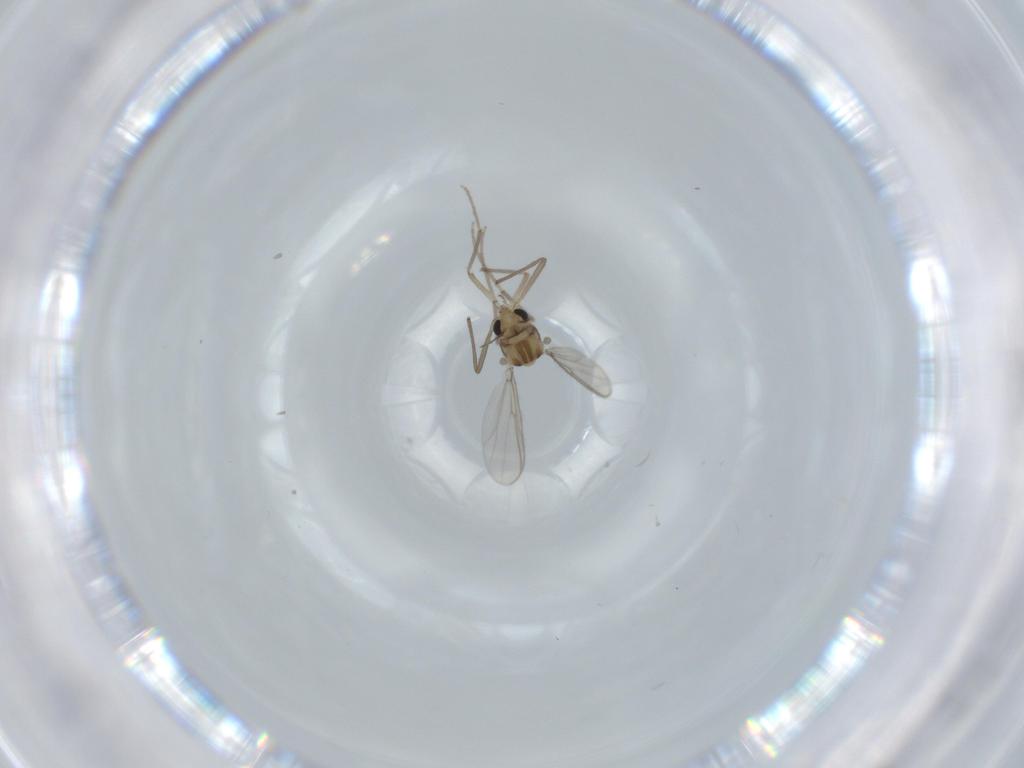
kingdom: Animalia
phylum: Arthropoda
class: Insecta
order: Diptera
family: Chironomidae
